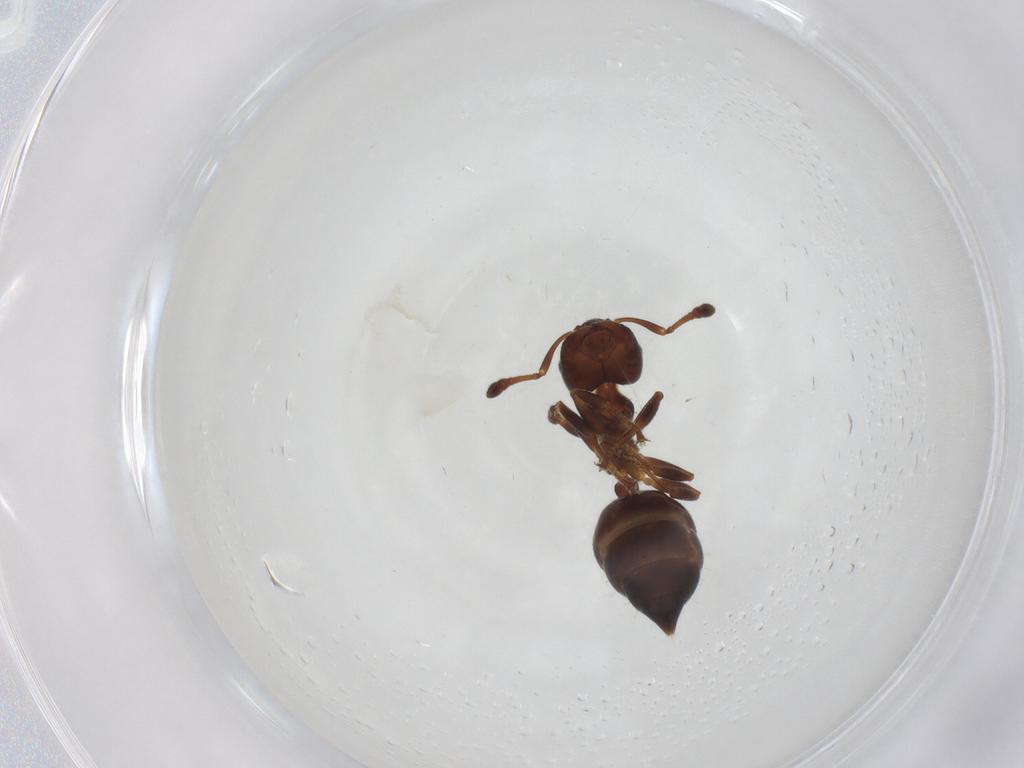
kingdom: Animalia
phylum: Arthropoda
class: Insecta
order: Hymenoptera
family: Formicidae
